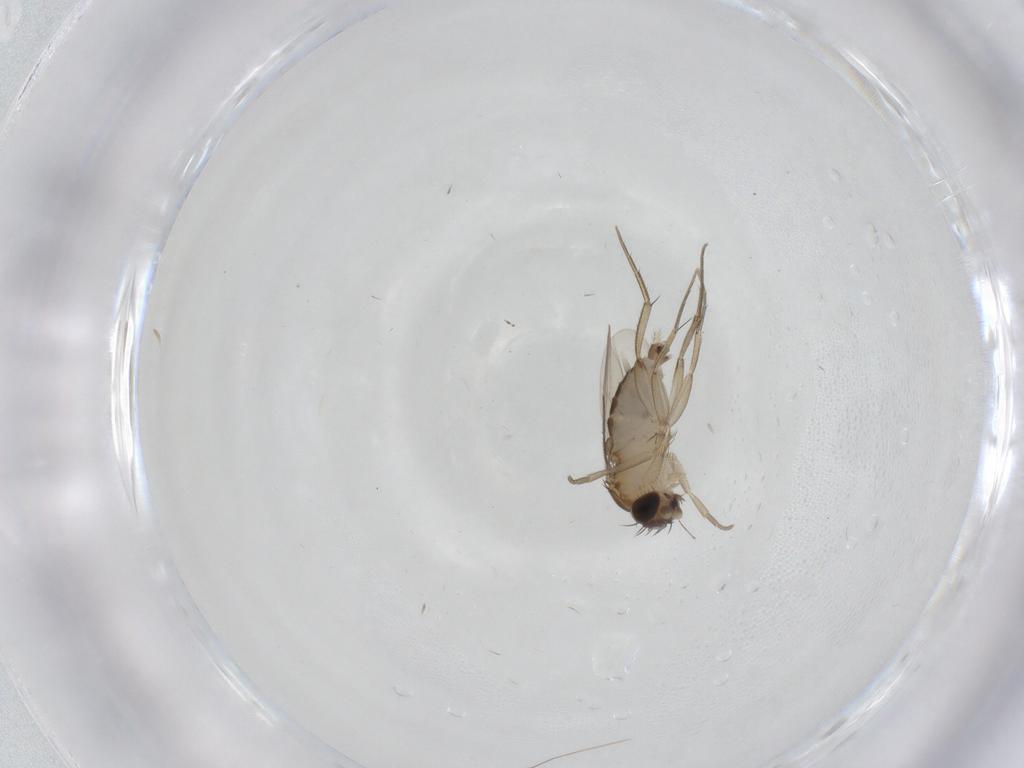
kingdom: Animalia
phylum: Arthropoda
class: Insecta
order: Diptera
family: Phoridae
